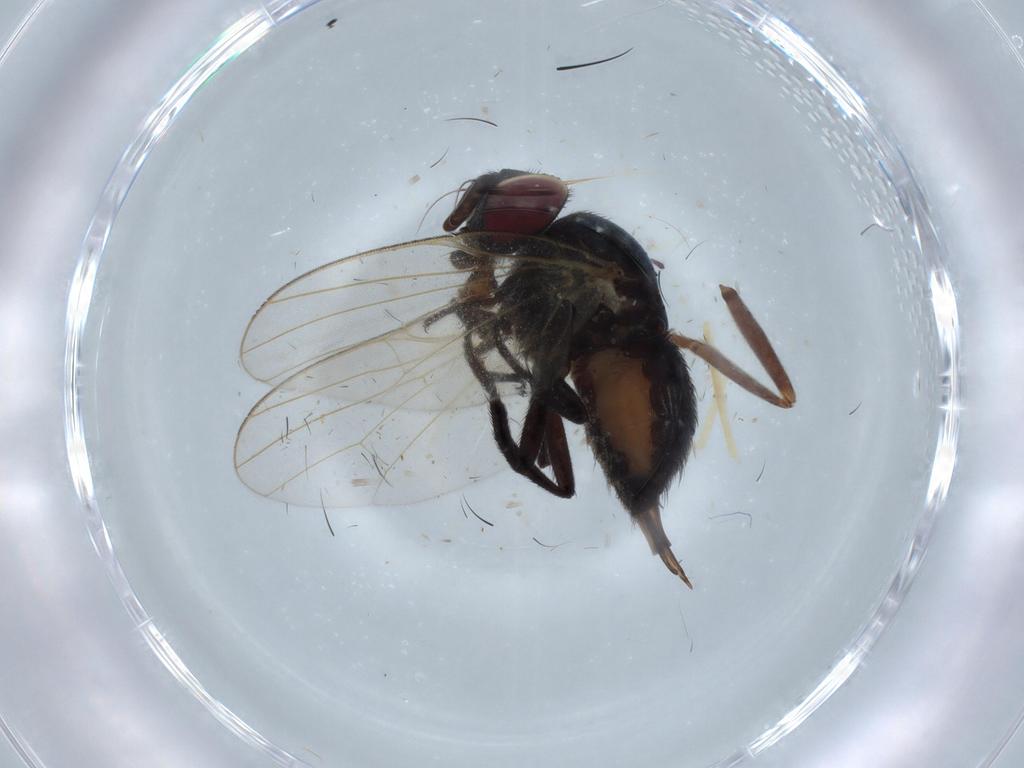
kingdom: Animalia
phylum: Arthropoda
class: Insecta
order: Diptera
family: Lonchaeidae
